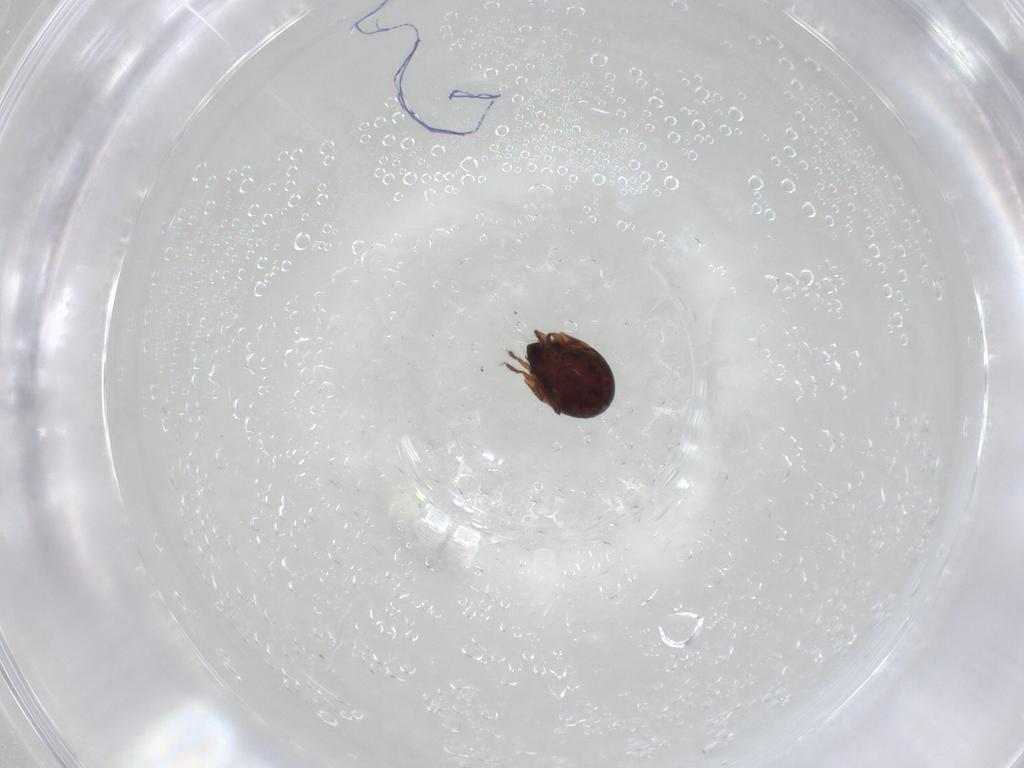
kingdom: Animalia
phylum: Arthropoda
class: Arachnida
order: Sarcoptiformes
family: Humerobatidae
